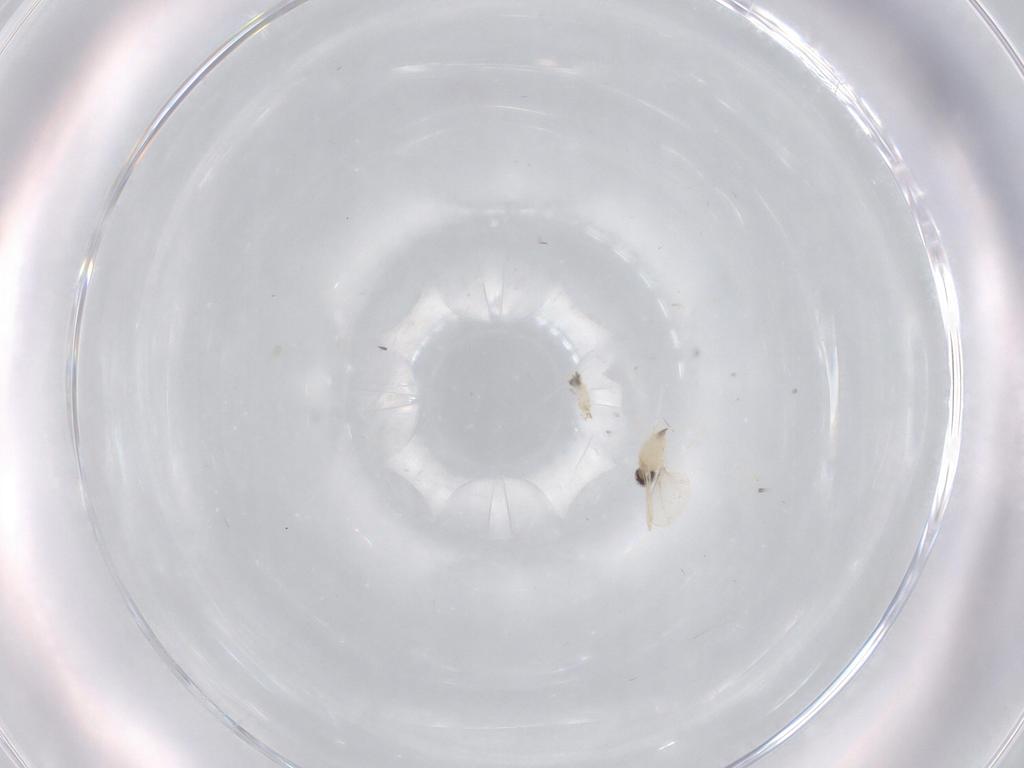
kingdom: Animalia
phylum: Arthropoda
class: Insecta
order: Diptera
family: Cecidomyiidae
